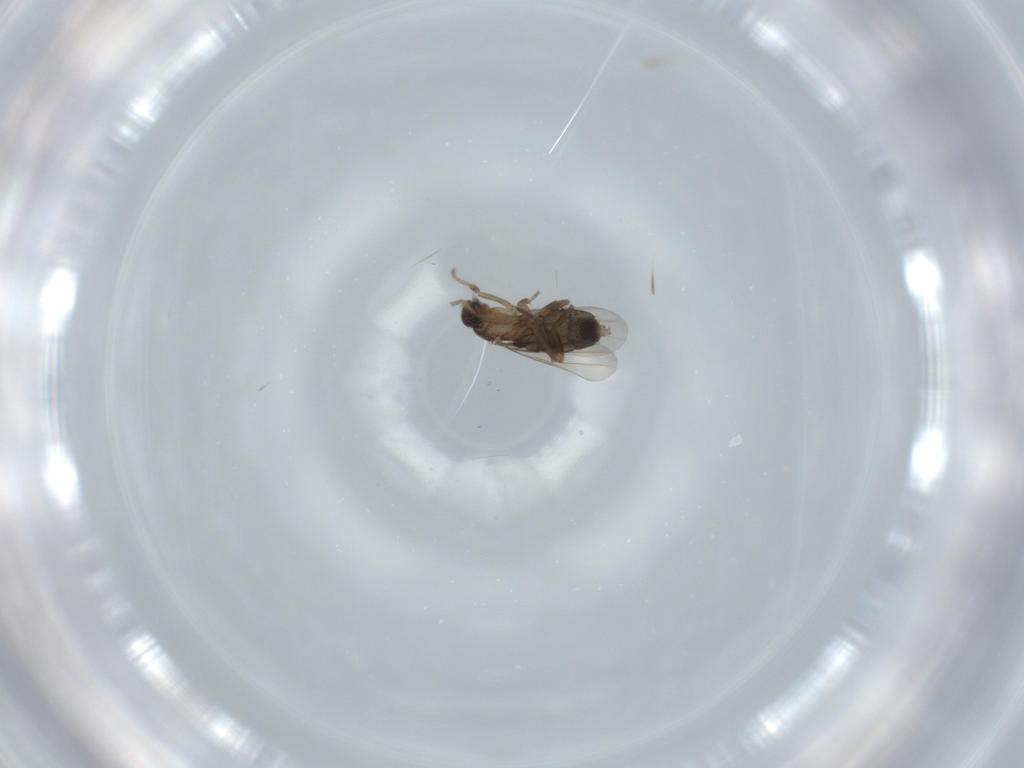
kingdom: Animalia
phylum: Arthropoda
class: Insecta
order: Diptera
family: Phoridae
